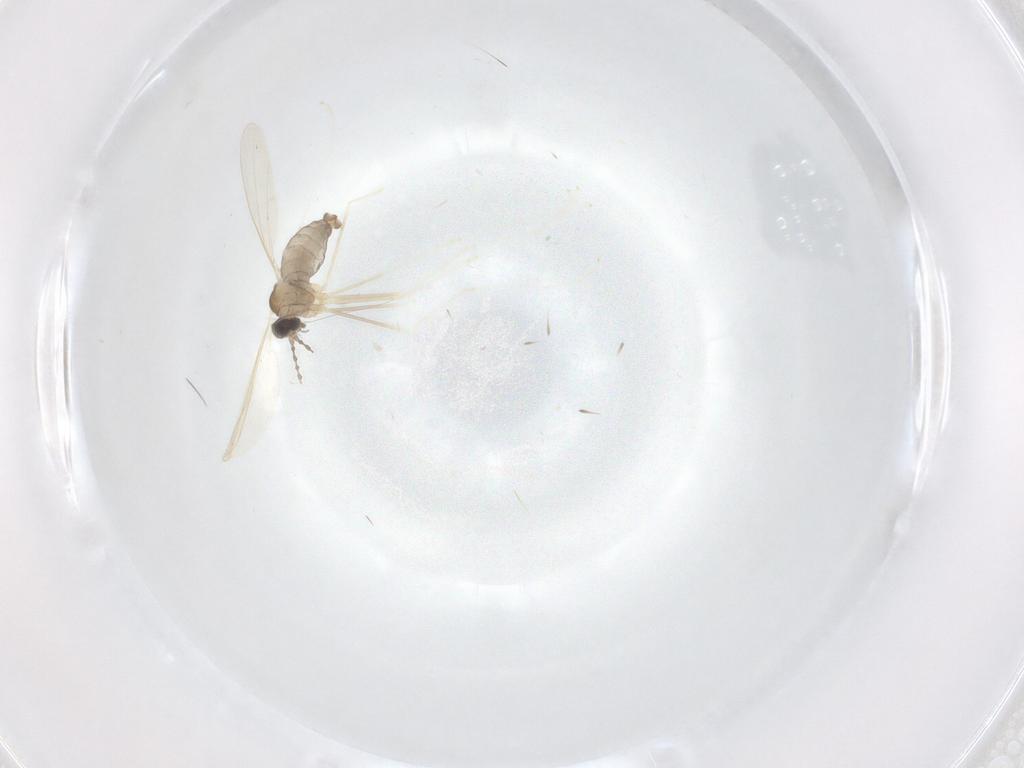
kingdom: Animalia
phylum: Arthropoda
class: Insecta
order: Diptera
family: Cecidomyiidae
